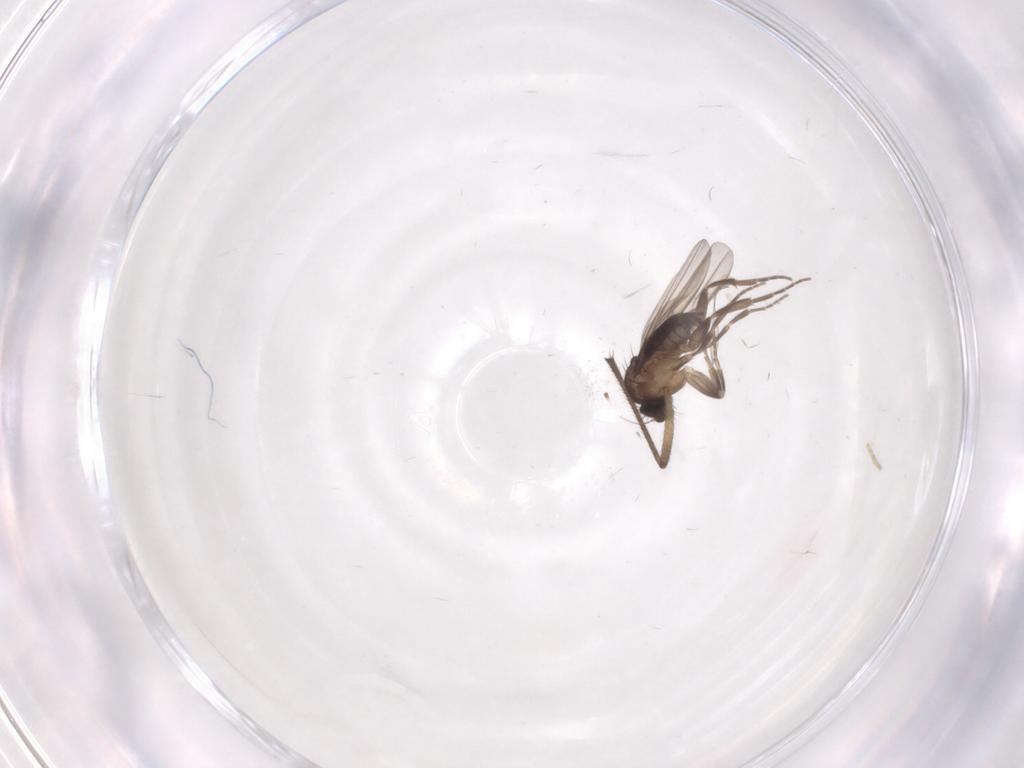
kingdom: Animalia
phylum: Arthropoda
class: Insecta
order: Diptera
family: Sciaridae
